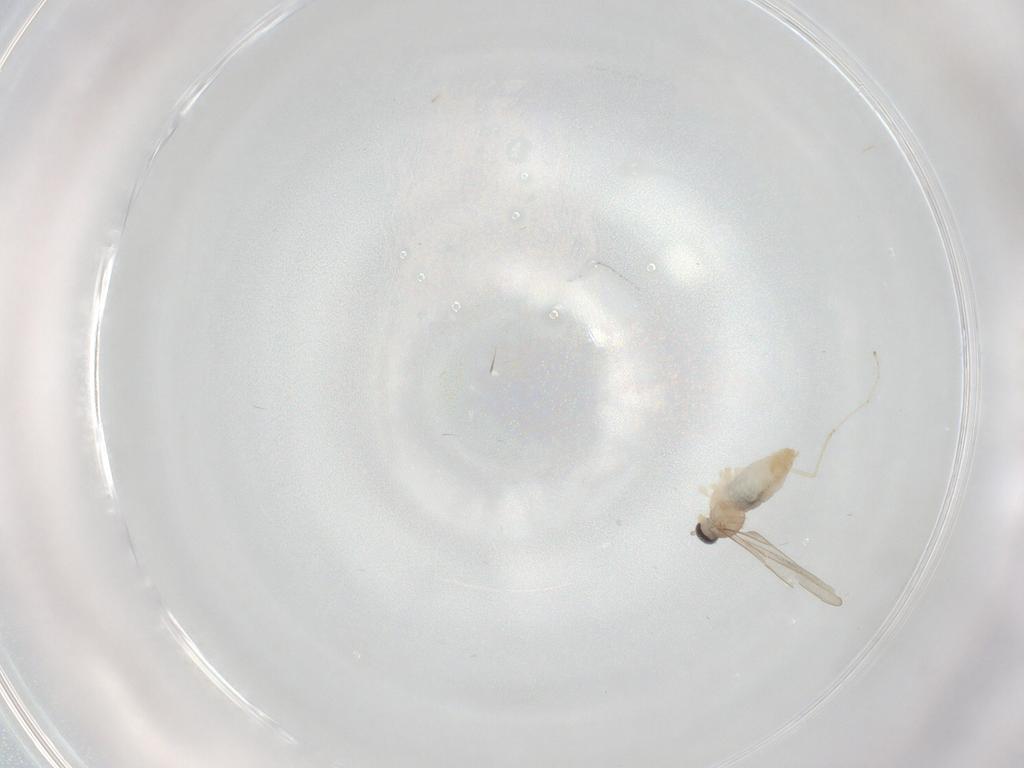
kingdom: Animalia
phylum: Arthropoda
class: Insecta
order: Diptera
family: Cecidomyiidae
